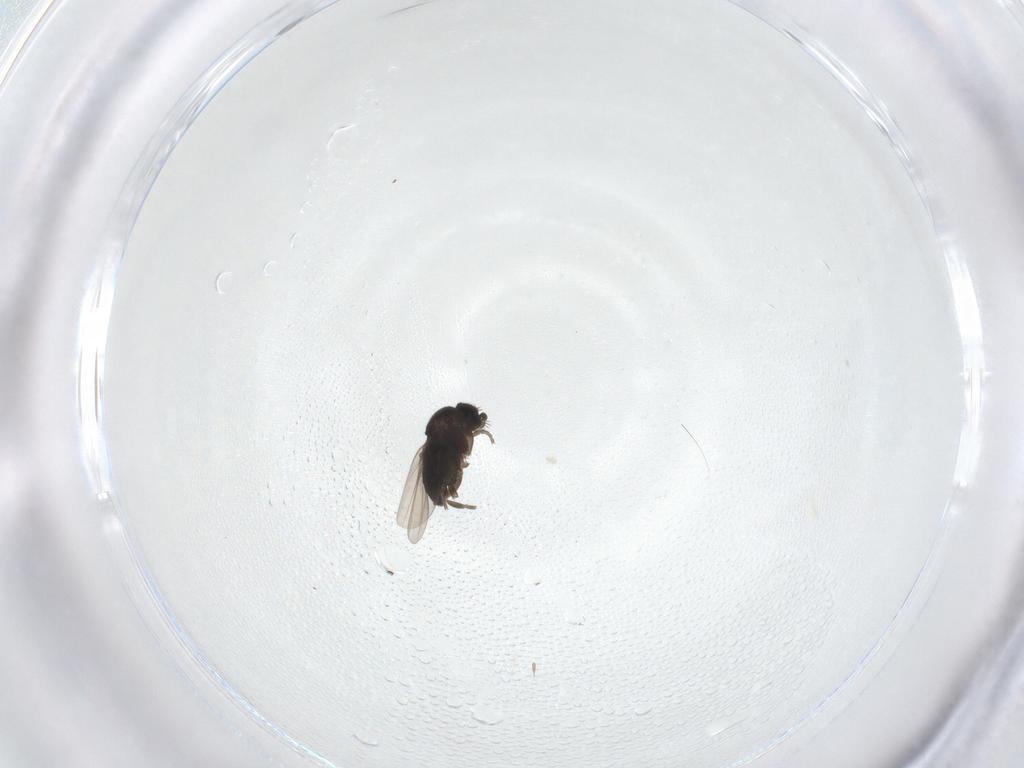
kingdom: Animalia
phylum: Arthropoda
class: Insecta
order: Diptera
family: Phoridae
